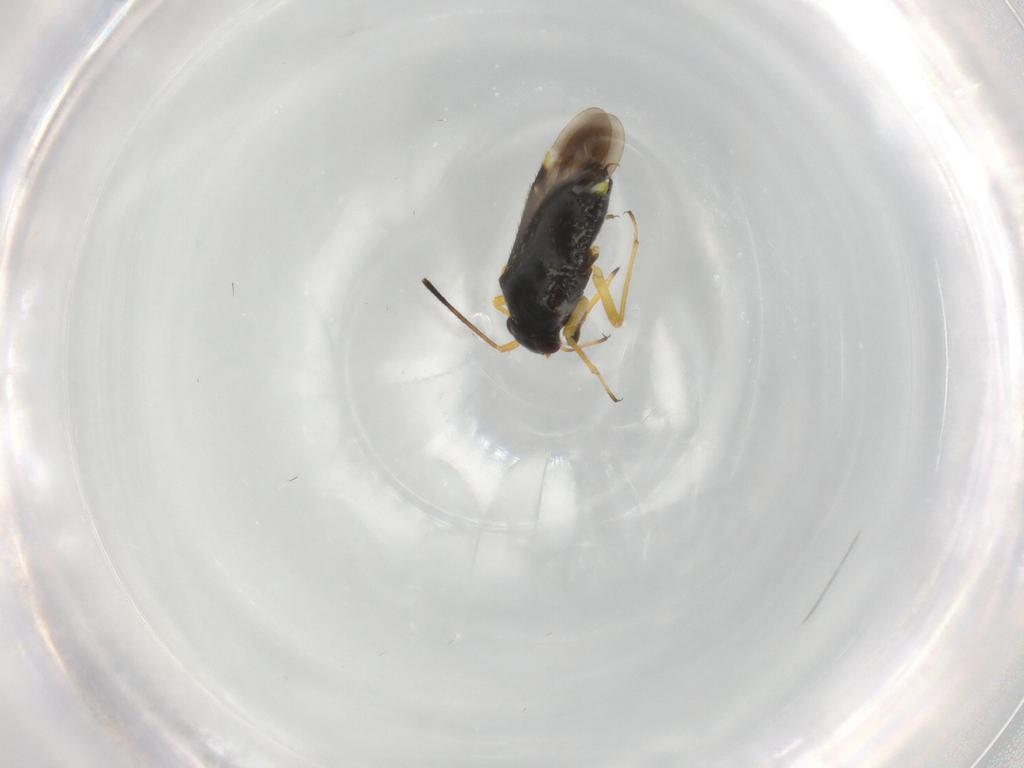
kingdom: Animalia
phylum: Arthropoda
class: Insecta
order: Hemiptera
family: Miridae
